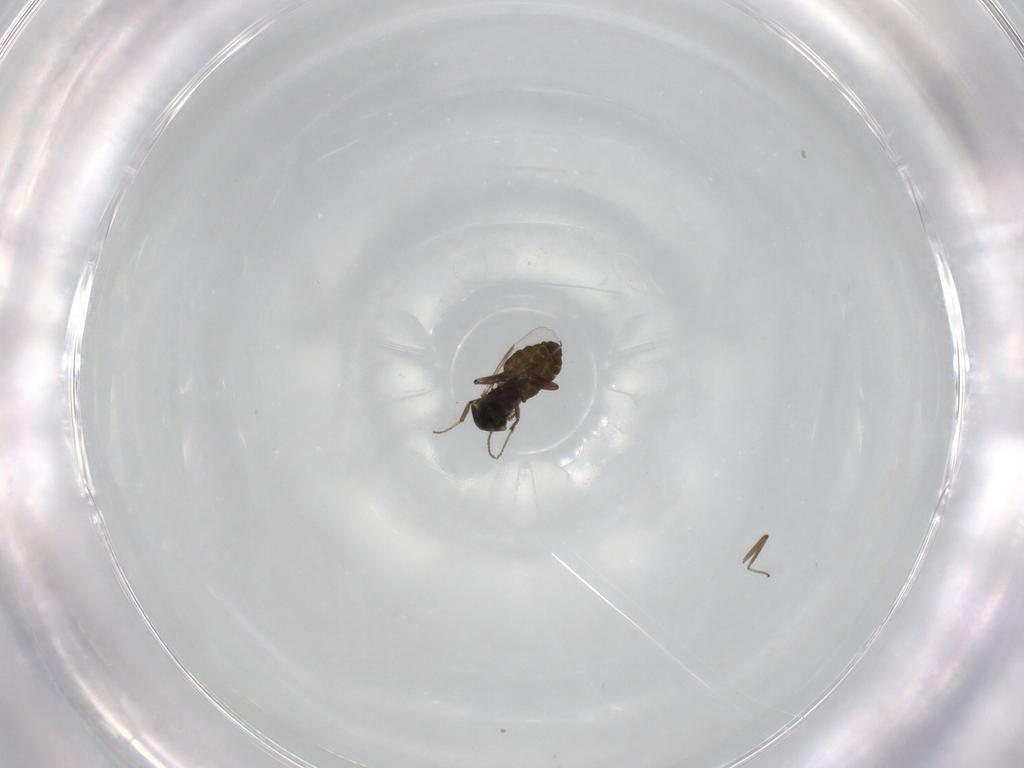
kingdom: Animalia
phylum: Arthropoda
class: Insecta
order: Diptera
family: Ceratopogonidae
